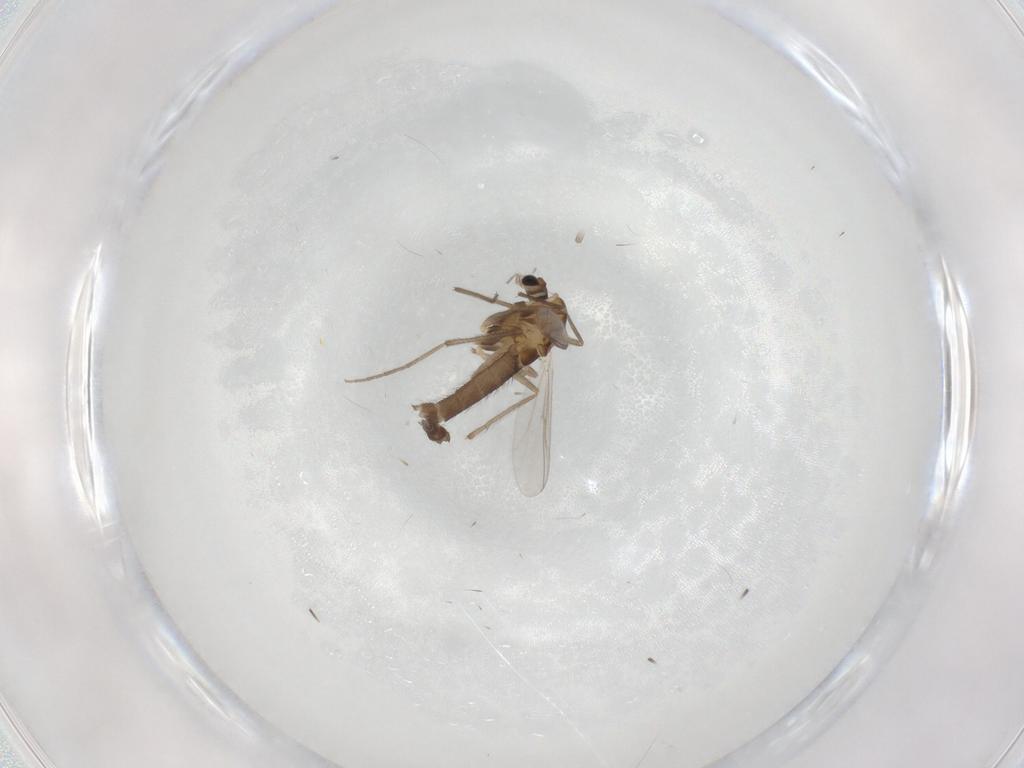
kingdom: Animalia
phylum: Arthropoda
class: Insecta
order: Diptera
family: Chironomidae
